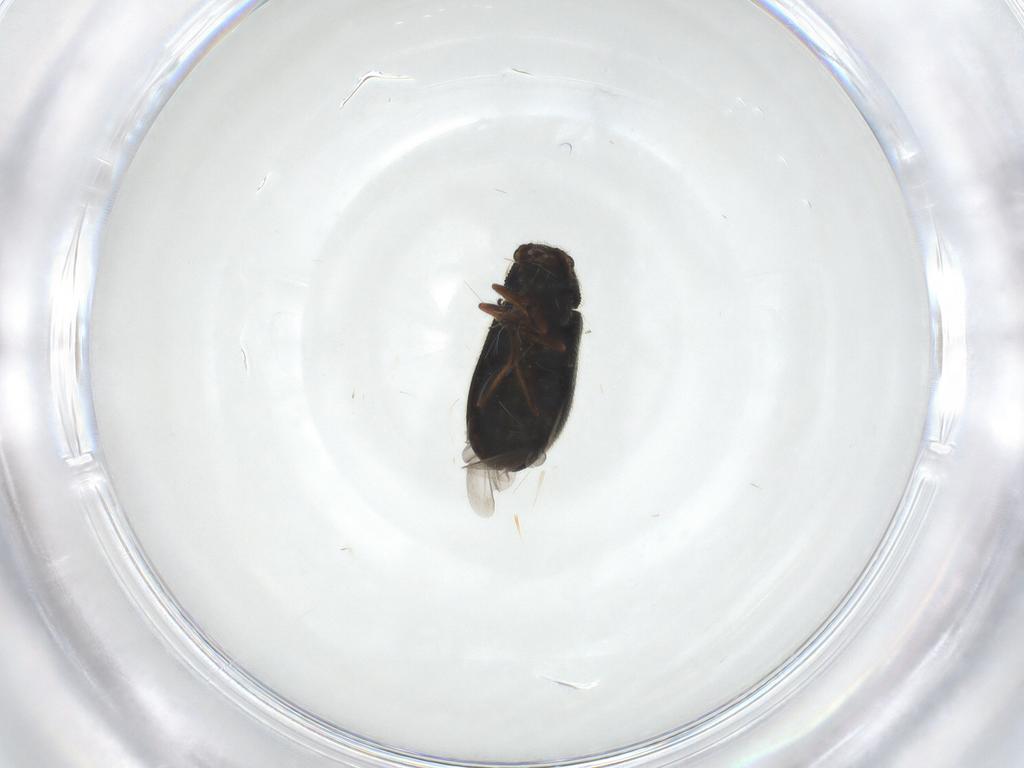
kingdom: Animalia
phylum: Arthropoda
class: Insecta
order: Coleoptera
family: Melyridae
